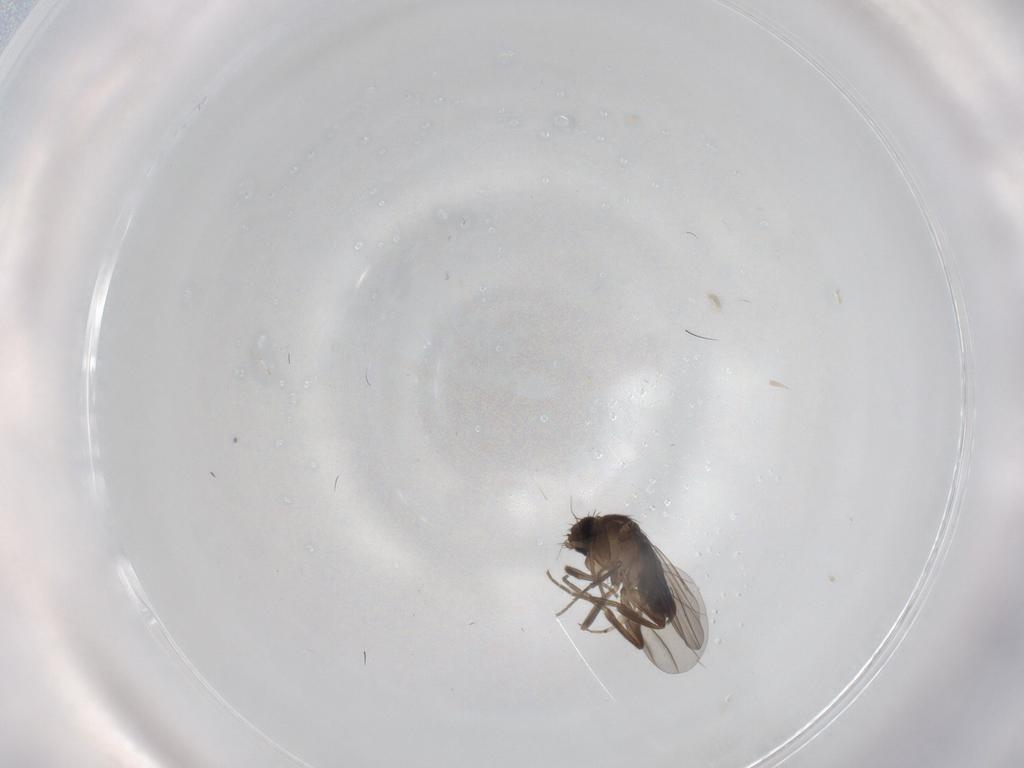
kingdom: Animalia
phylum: Arthropoda
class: Insecta
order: Diptera
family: Phoridae
